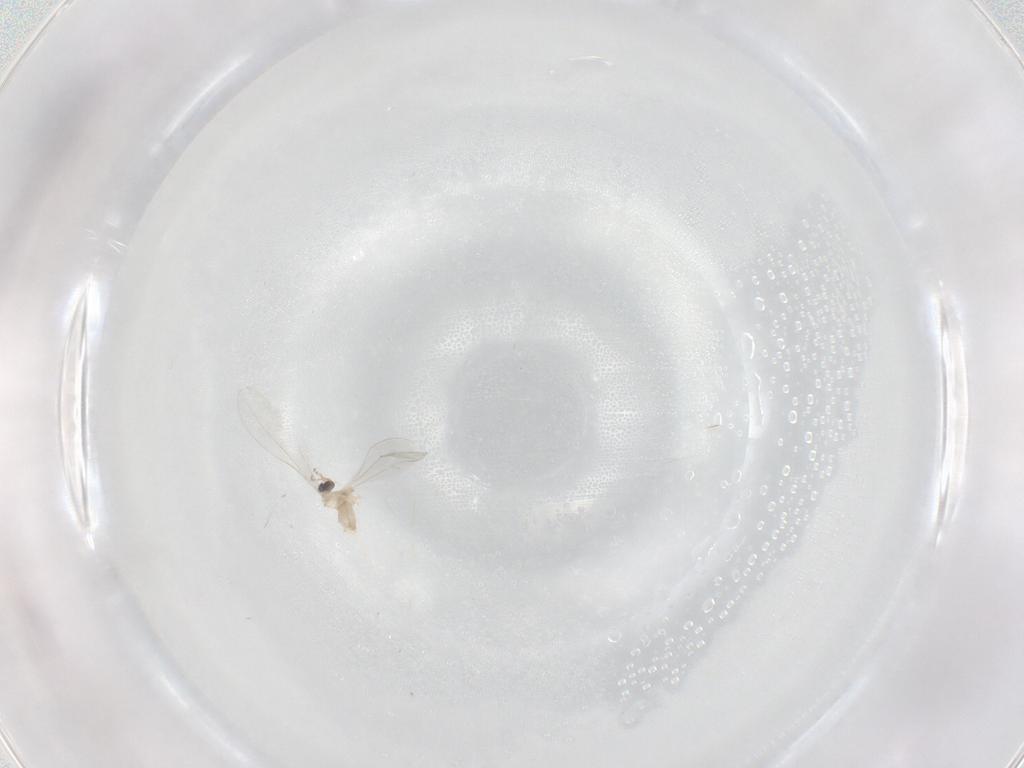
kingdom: Animalia
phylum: Arthropoda
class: Insecta
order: Diptera
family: Cecidomyiidae
